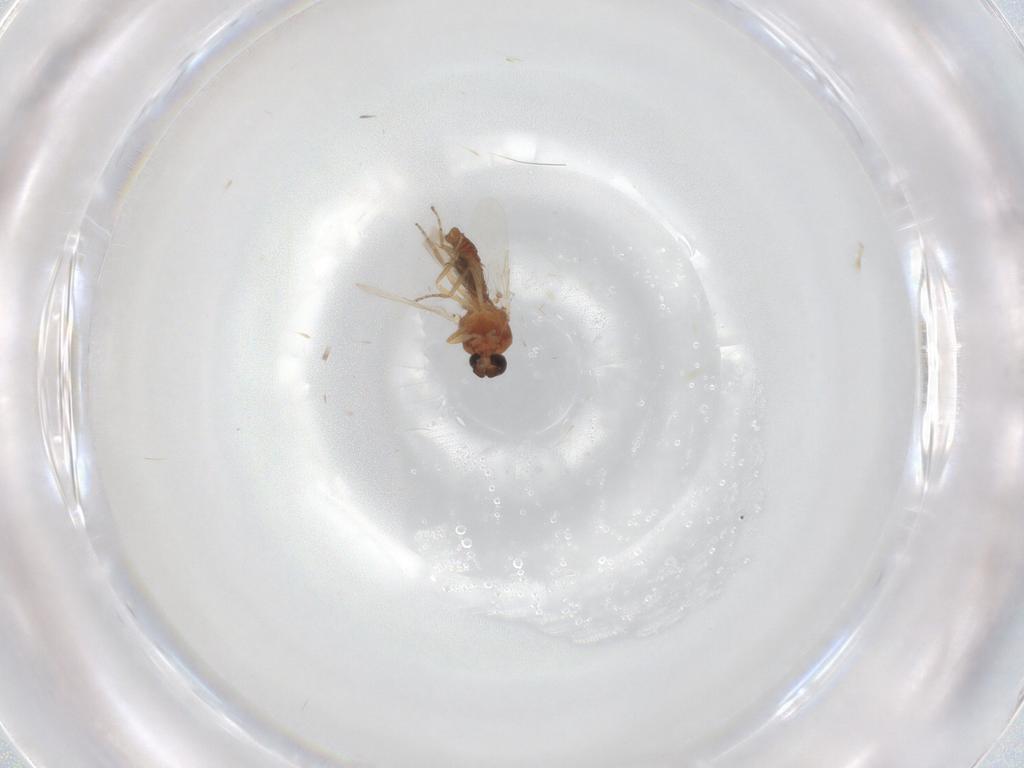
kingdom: Animalia
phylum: Arthropoda
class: Insecta
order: Diptera
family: Ceratopogonidae
